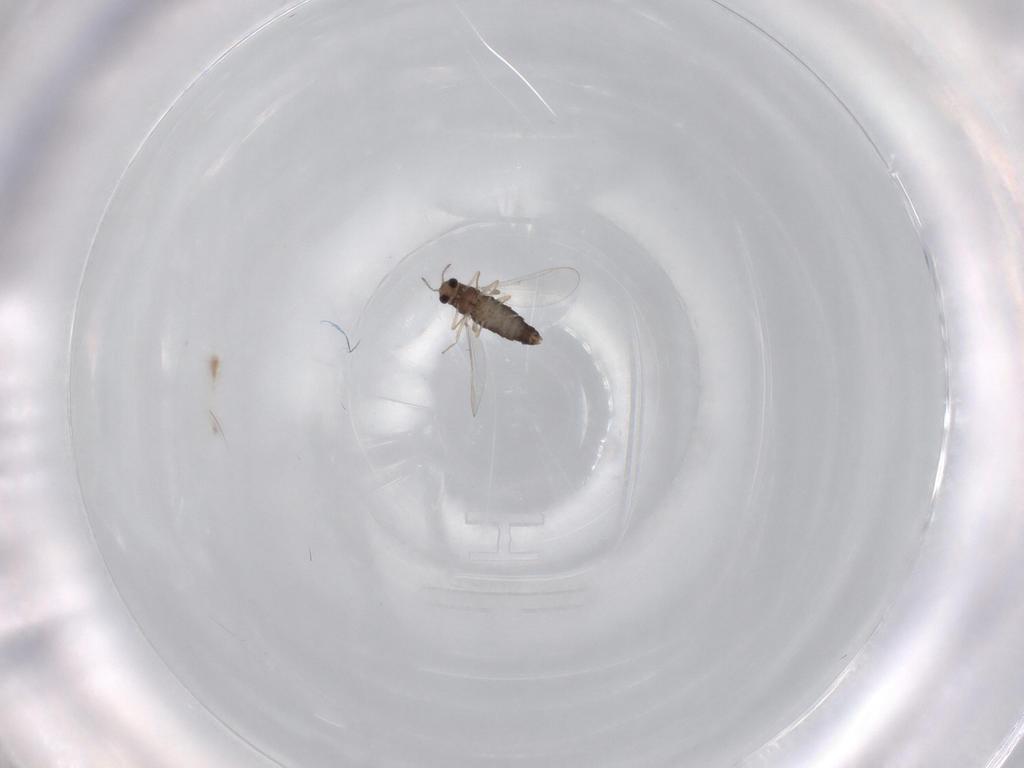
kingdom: Animalia
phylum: Arthropoda
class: Insecta
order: Diptera
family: Chironomidae
